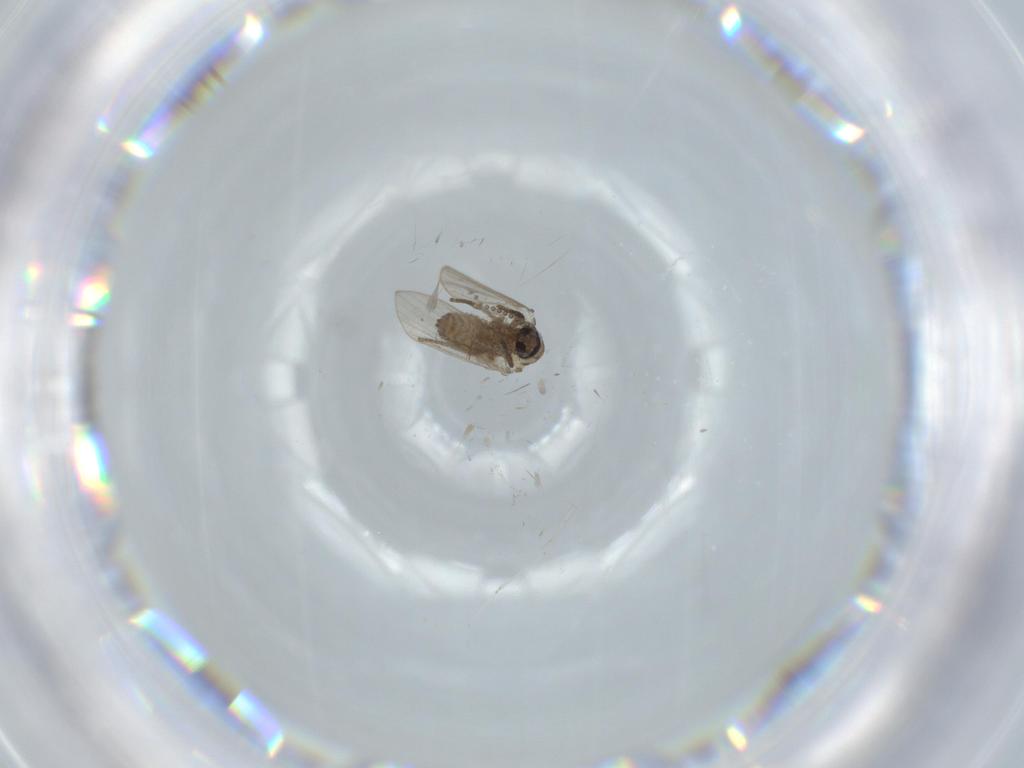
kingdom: Animalia
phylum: Arthropoda
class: Insecta
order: Diptera
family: Psychodidae
